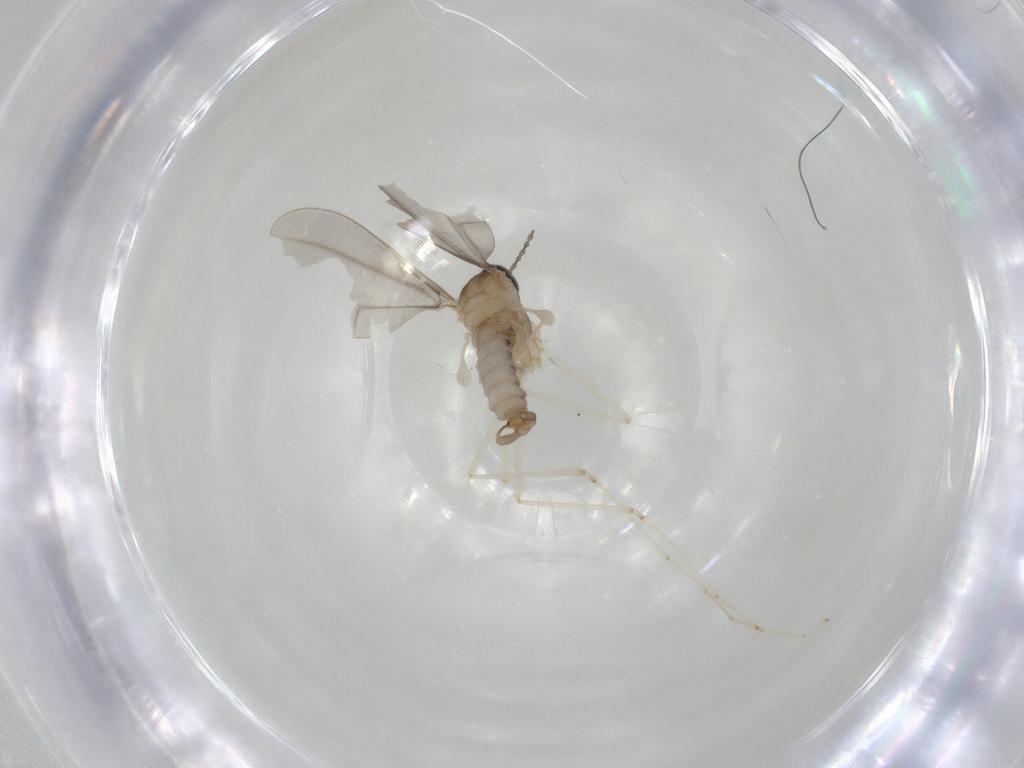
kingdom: Animalia
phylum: Arthropoda
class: Insecta
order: Diptera
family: Cecidomyiidae
